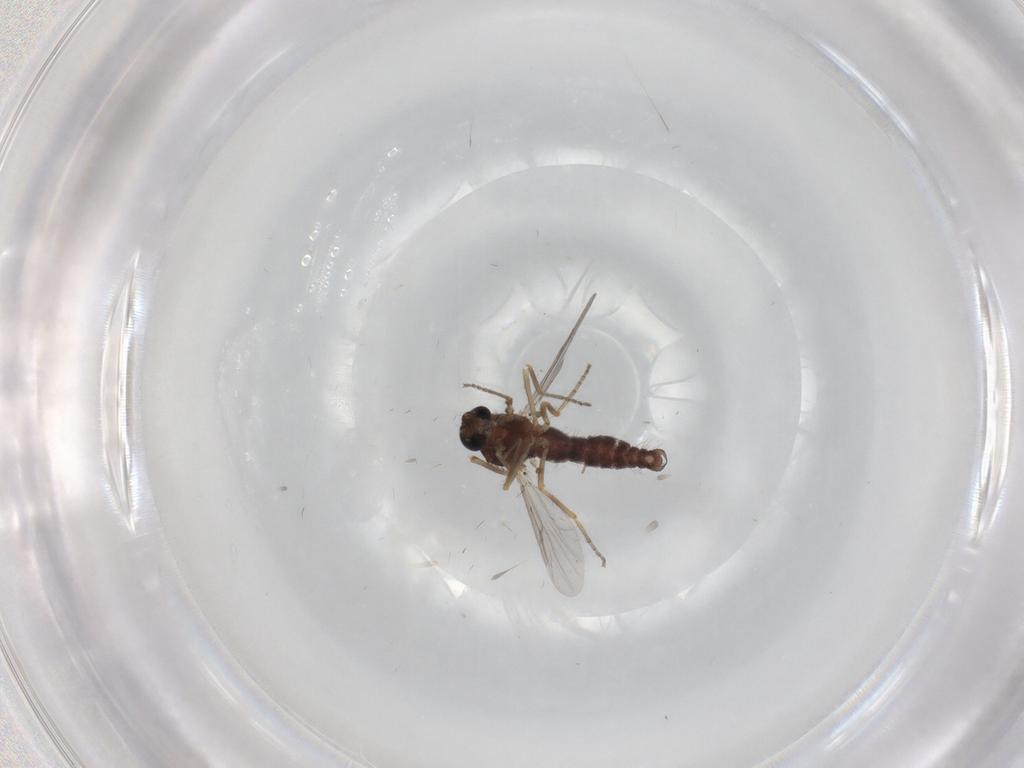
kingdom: Animalia
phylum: Arthropoda
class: Insecta
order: Diptera
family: Ceratopogonidae
